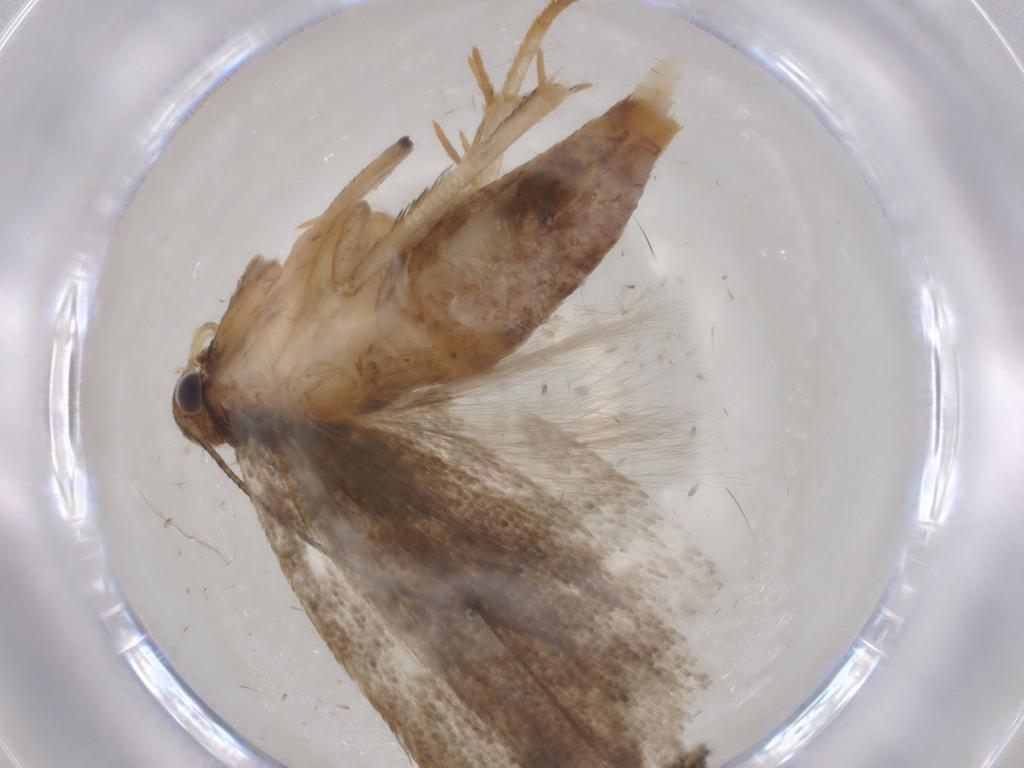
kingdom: Animalia
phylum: Arthropoda
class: Insecta
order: Lepidoptera
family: Gelechiidae
